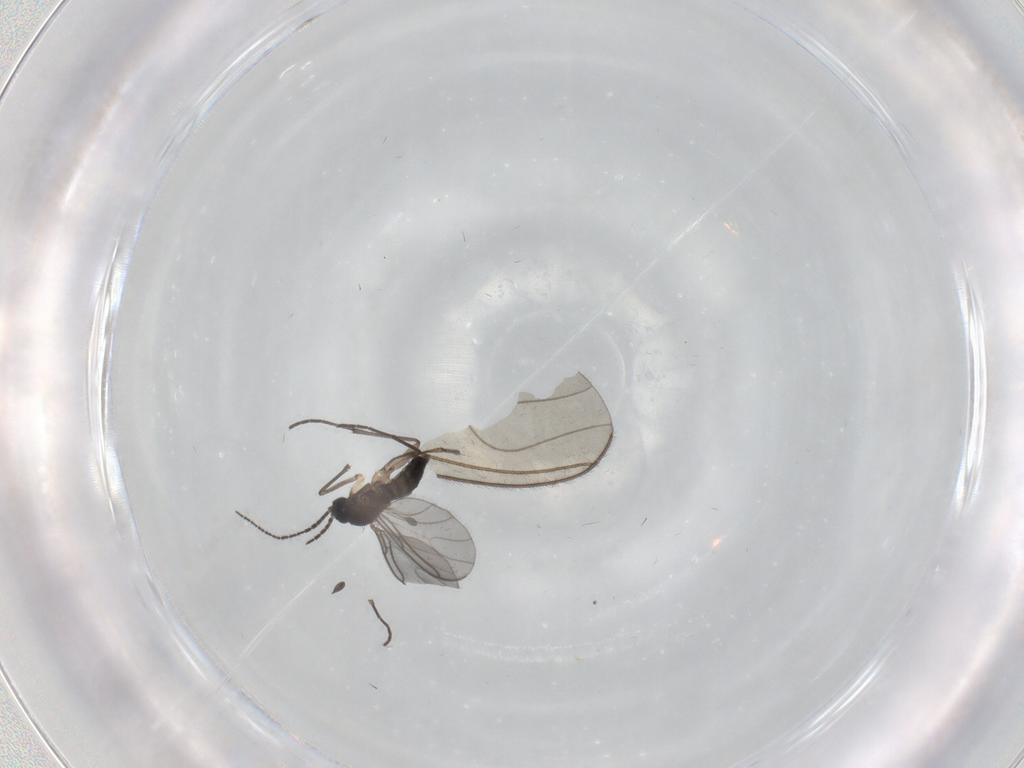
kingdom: Animalia
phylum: Arthropoda
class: Insecta
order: Diptera
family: Sciaridae
